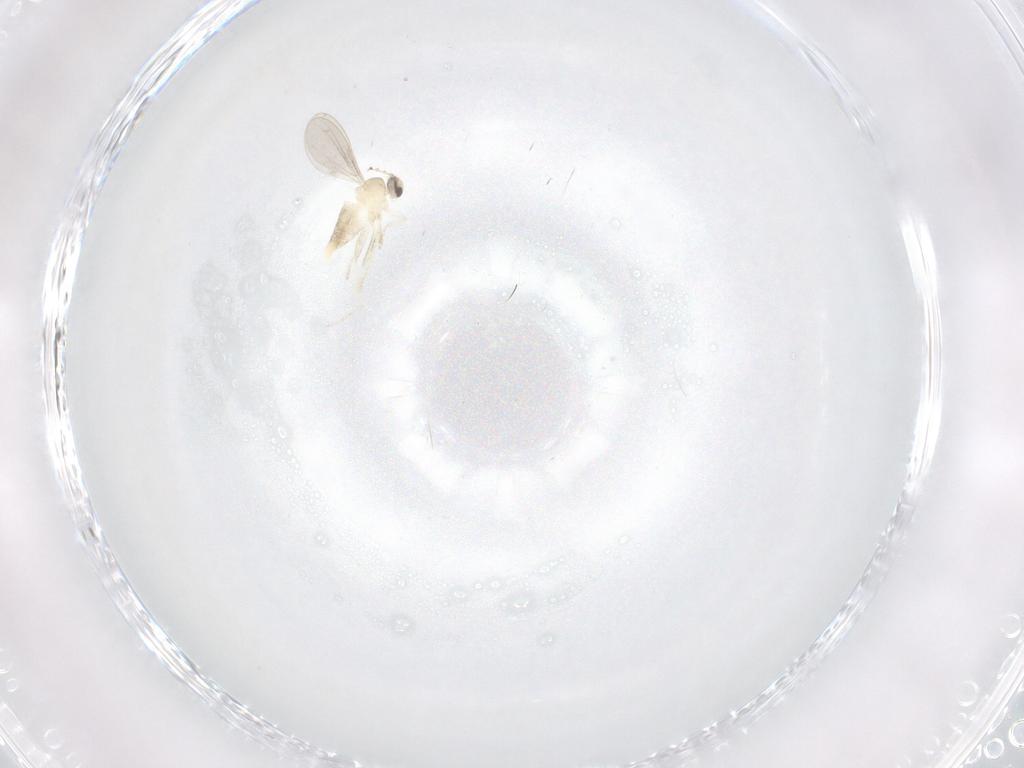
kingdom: Animalia
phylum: Arthropoda
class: Insecta
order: Diptera
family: Cecidomyiidae
